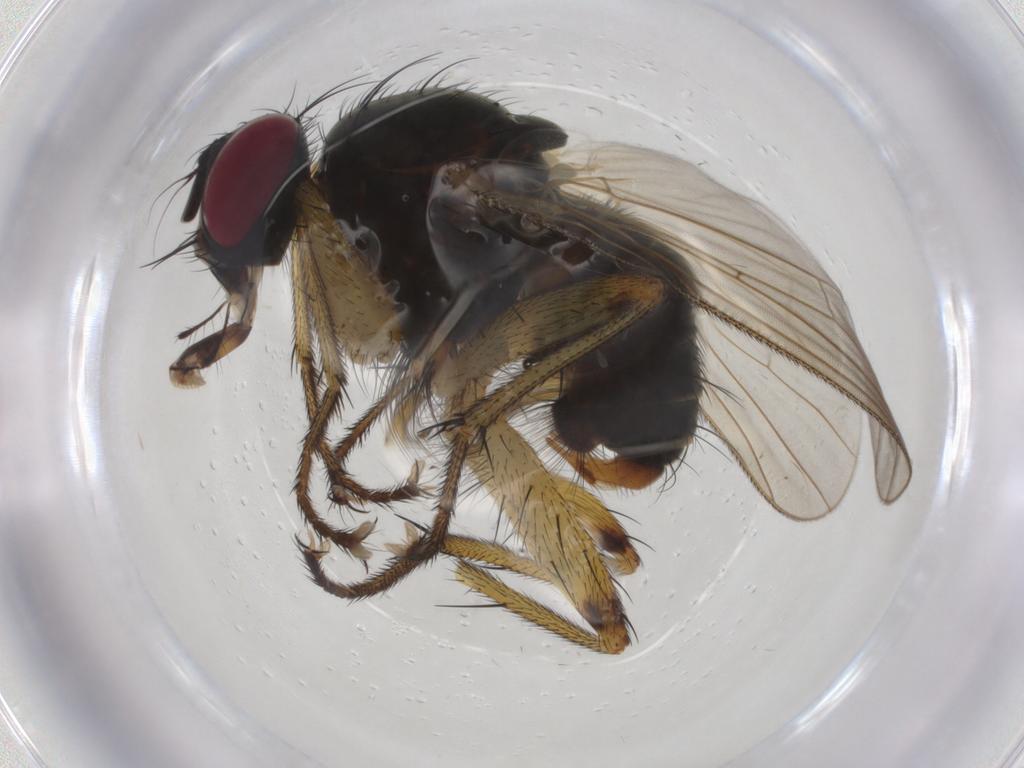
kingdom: Animalia
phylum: Arthropoda
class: Insecta
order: Diptera
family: Muscidae
